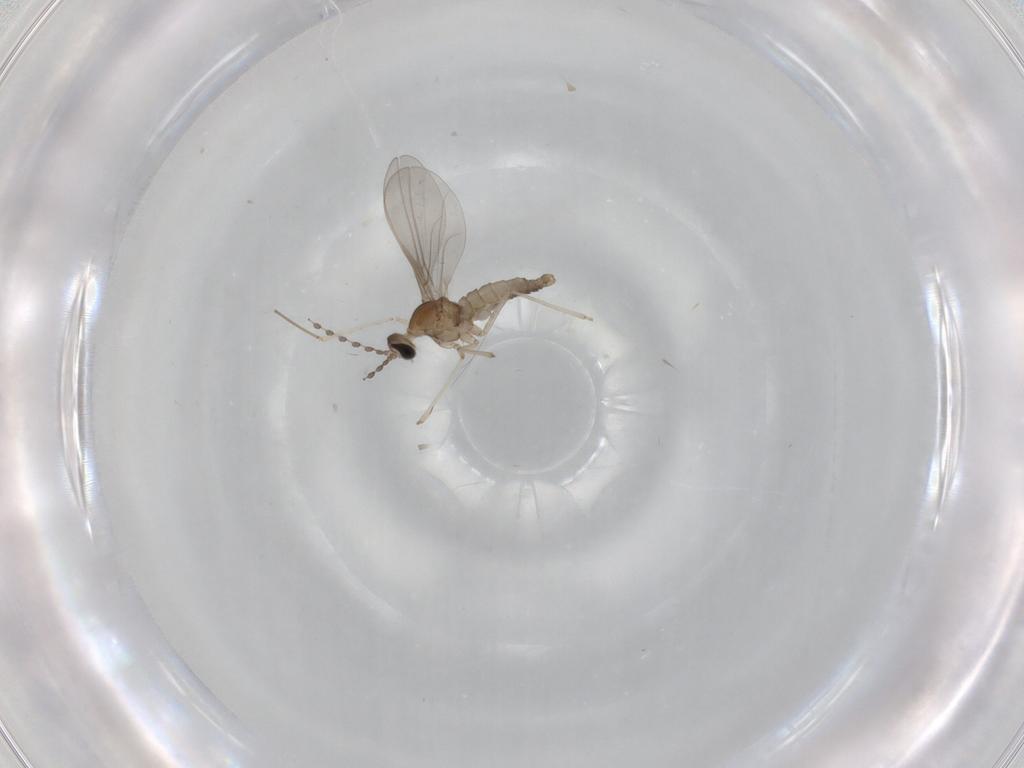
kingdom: Animalia
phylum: Arthropoda
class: Insecta
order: Diptera
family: Cecidomyiidae
